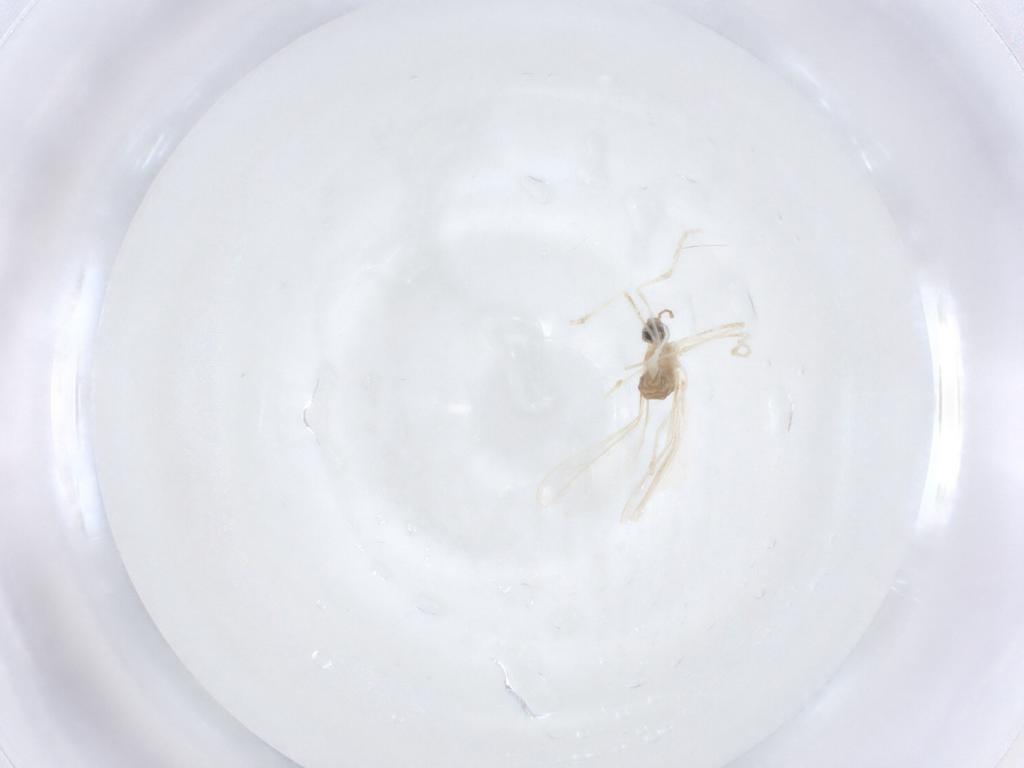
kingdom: Animalia
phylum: Arthropoda
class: Insecta
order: Diptera
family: Cecidomyiidae
